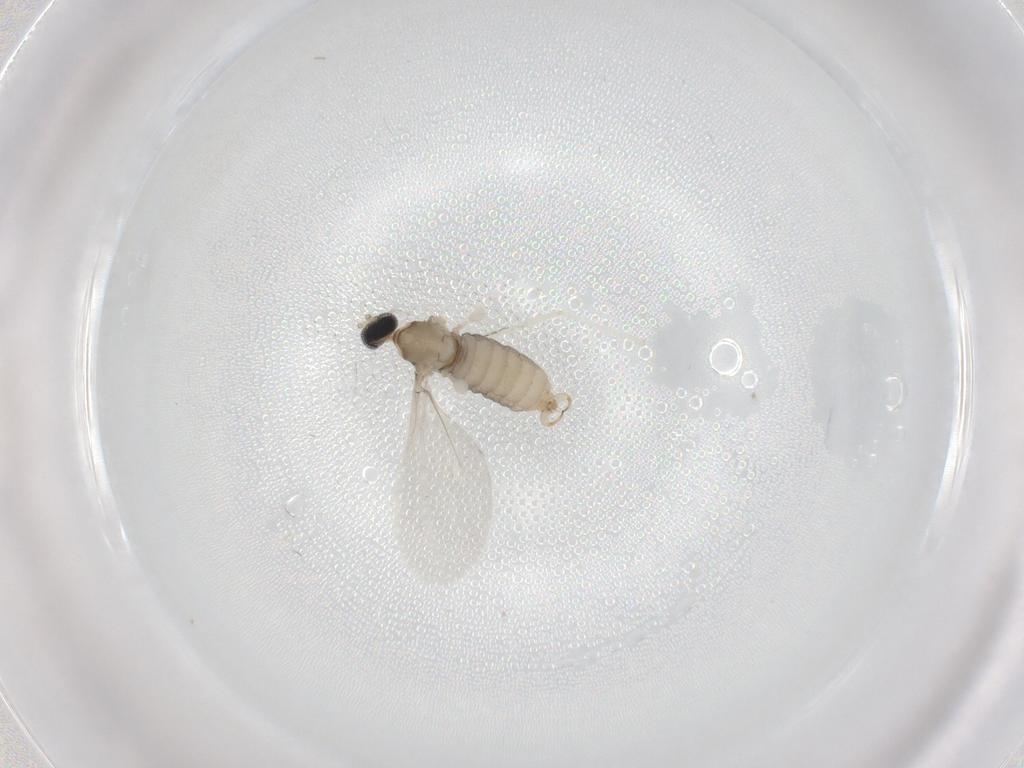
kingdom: Animalia
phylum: Arthropoda
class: Insecta
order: Diptera
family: Cecidomyiidae
